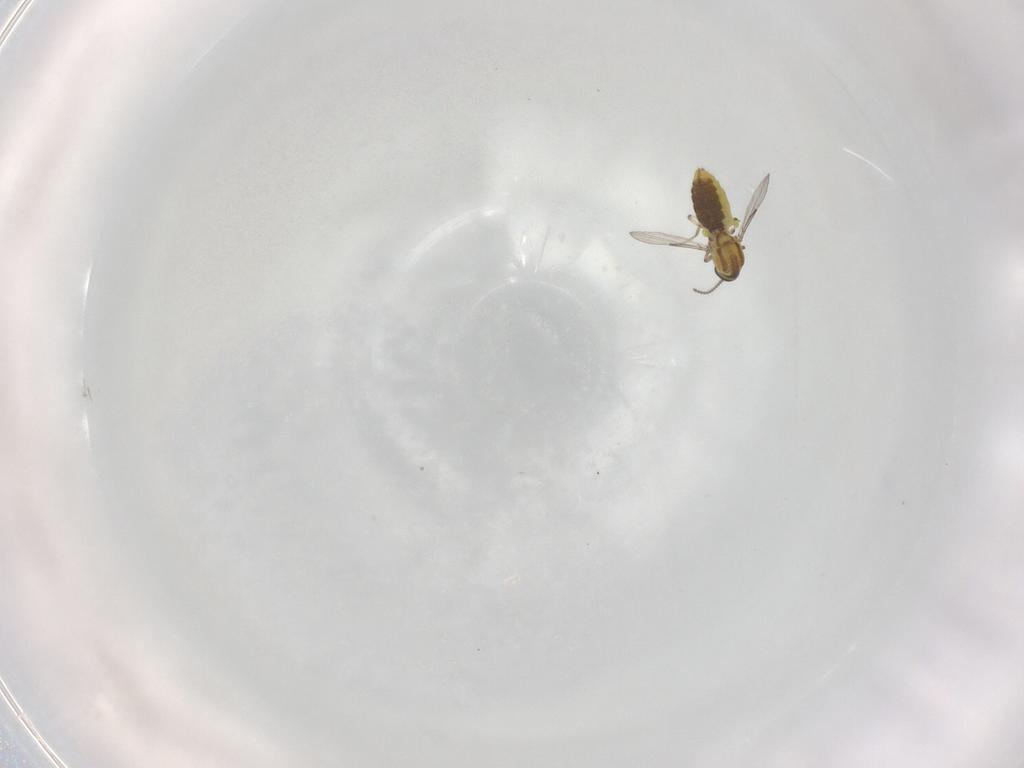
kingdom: Animalia
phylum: Arthropoda
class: Insecta
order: Diptera
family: Ceratopogonidae
